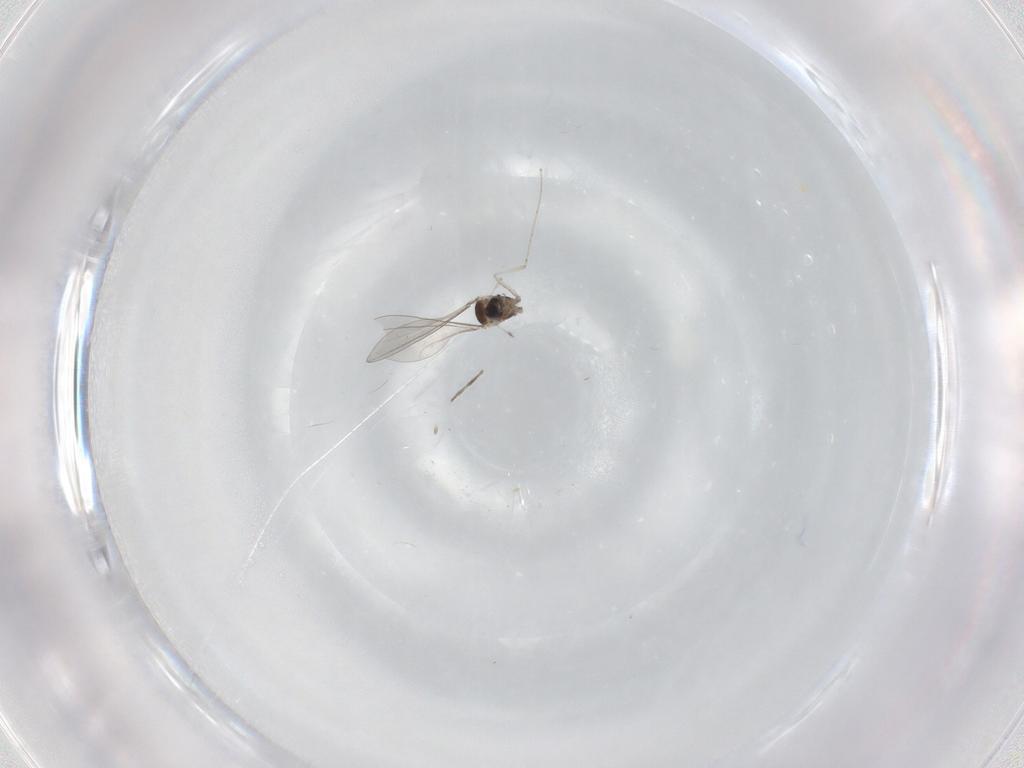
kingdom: Animalia
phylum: Arthropoda
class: Insecta
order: Diptera
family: Cecidomyiidae
